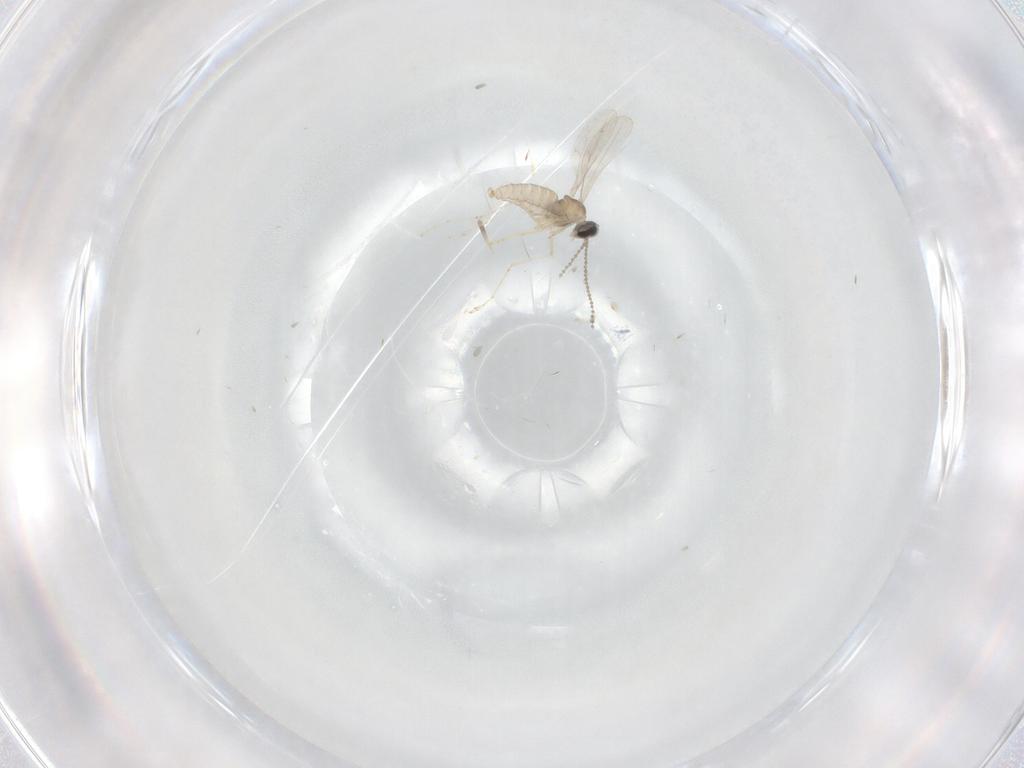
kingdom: Animalia
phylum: Arthropoda
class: Insecta
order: Diptera
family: Cecidomyiidae
